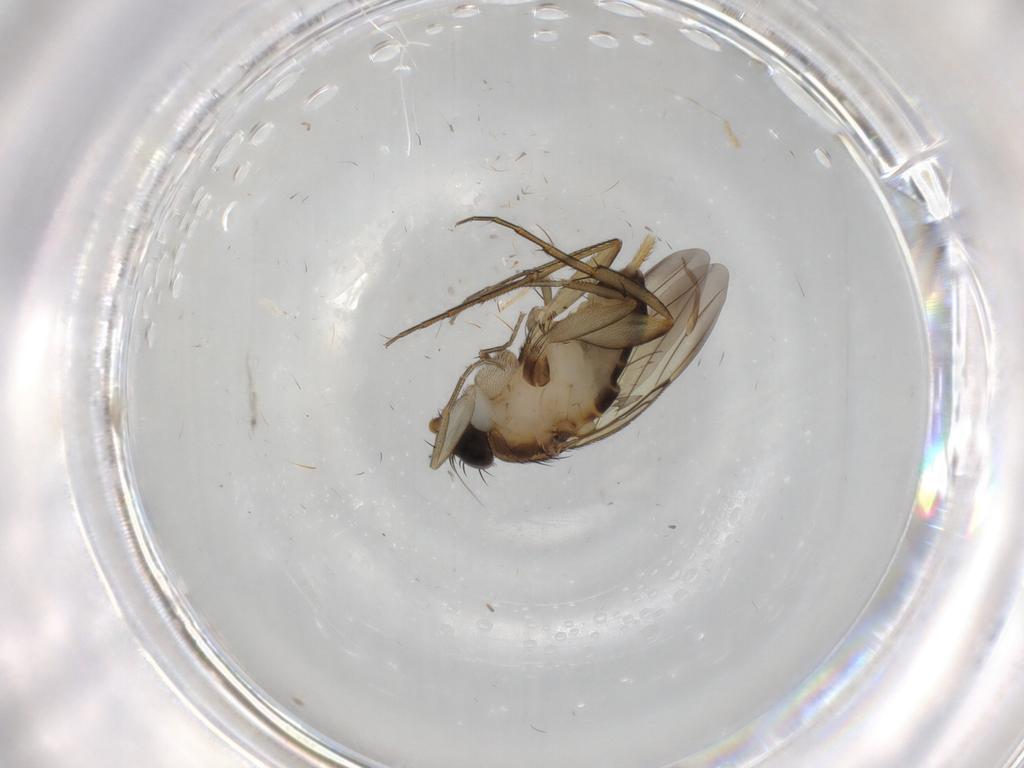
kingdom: Animalia
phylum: Arthropoda
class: Insecta
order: Diptera
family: Phoridae
